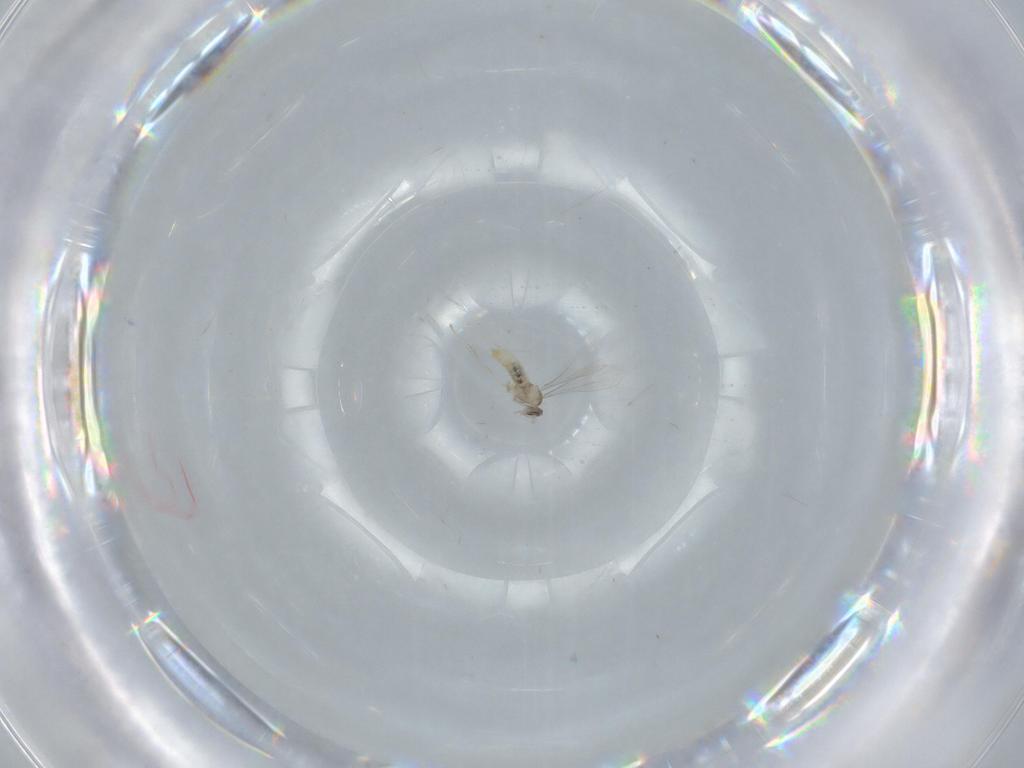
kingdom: Animalia
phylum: Arthropoda
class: Insecta
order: Diptera
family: Cecidomyiidae
